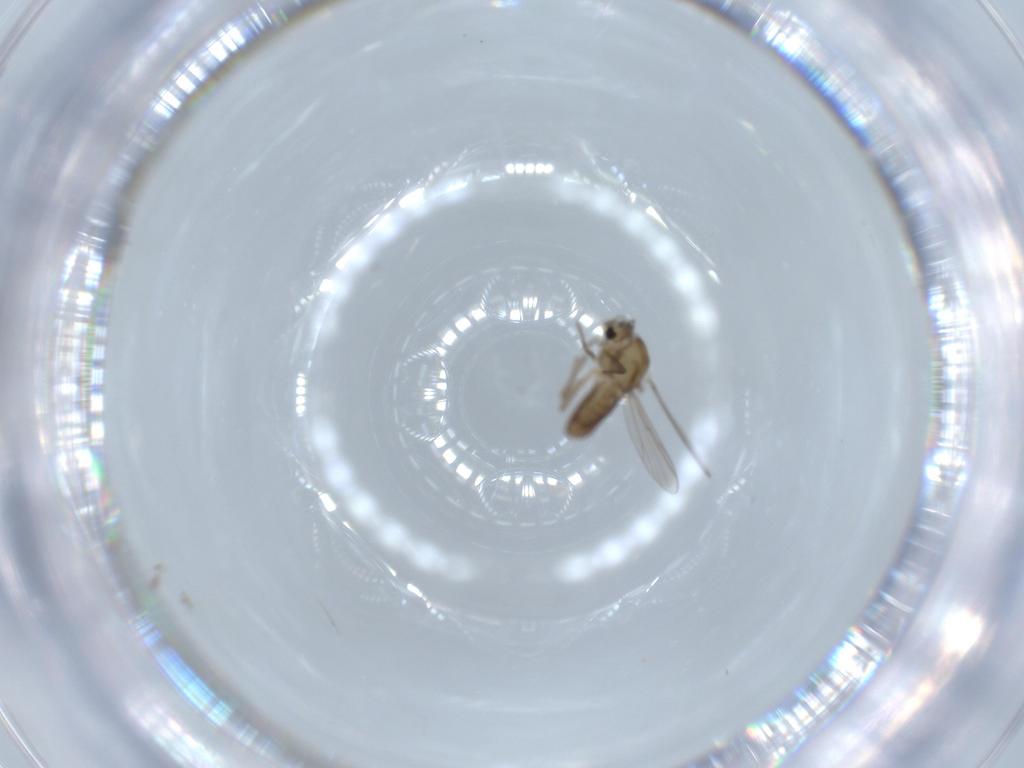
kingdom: Animalia
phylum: Arthropoda
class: Insecta
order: Diptera
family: Chironomidae
